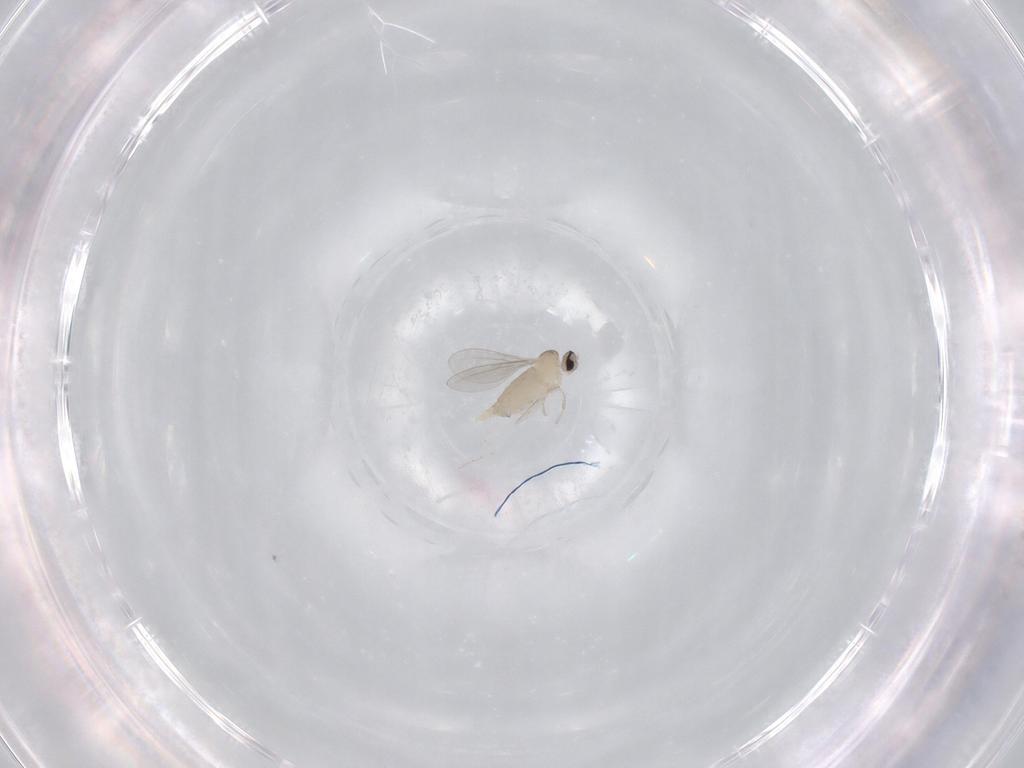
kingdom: Animalia
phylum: Arthropoda
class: Insecta
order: Diptera
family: Cecidomyiidae
